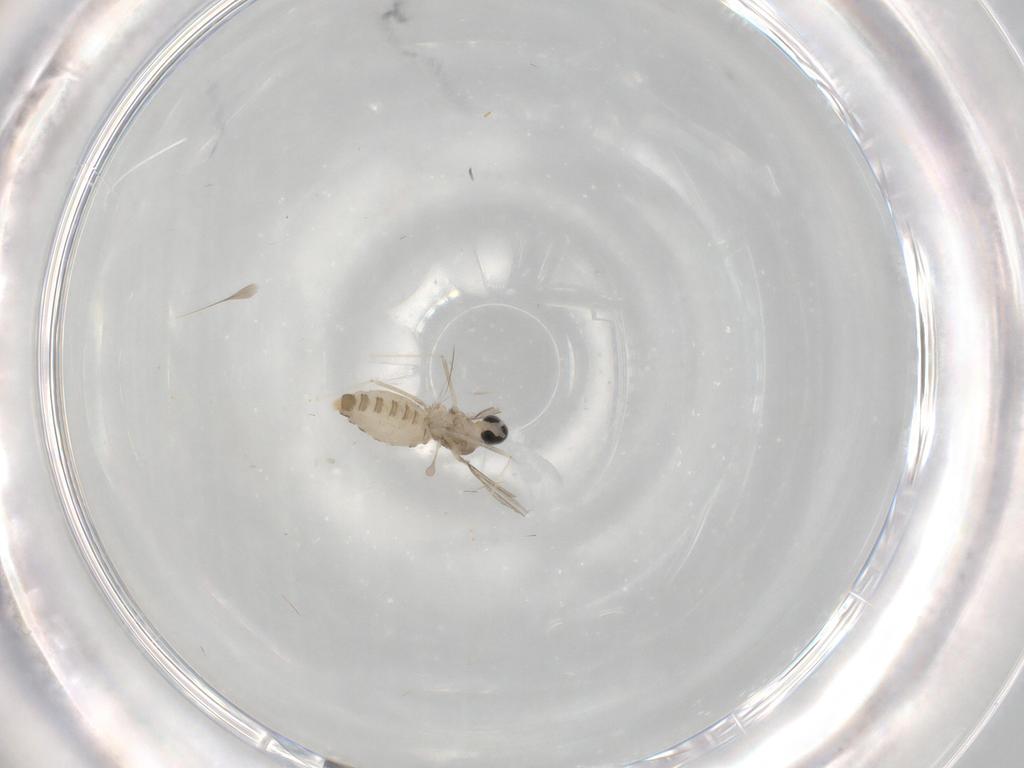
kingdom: Animalia
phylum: Arthropoda
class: Insecta
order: Diptera
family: Cecidomyiidae
